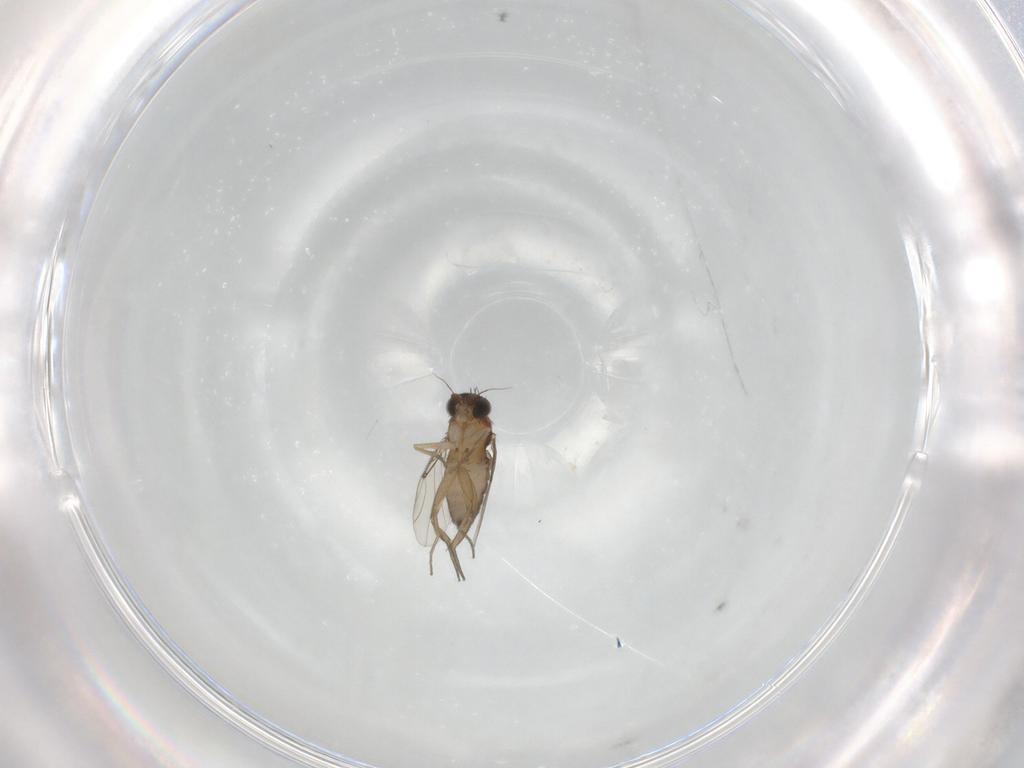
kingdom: Animalia
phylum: Arthropoda
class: Insecta
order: Diptera
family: Phoridae
